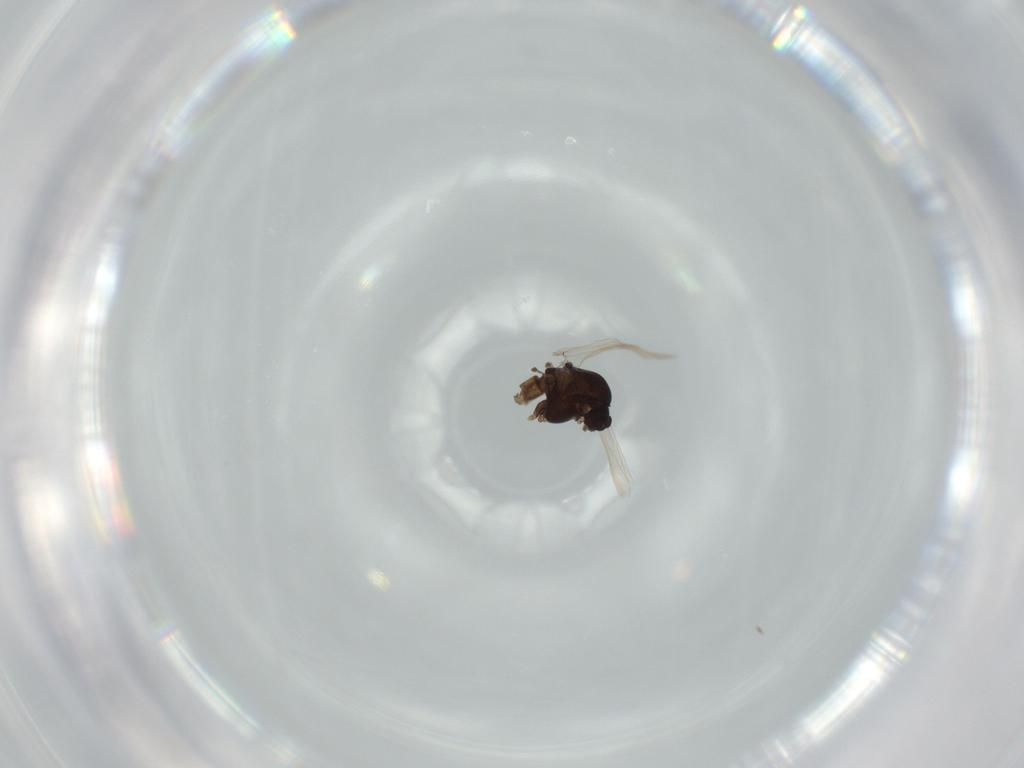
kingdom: Animalia
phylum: Arthropoda
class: Insecta
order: Diptera
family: Chironomidae
